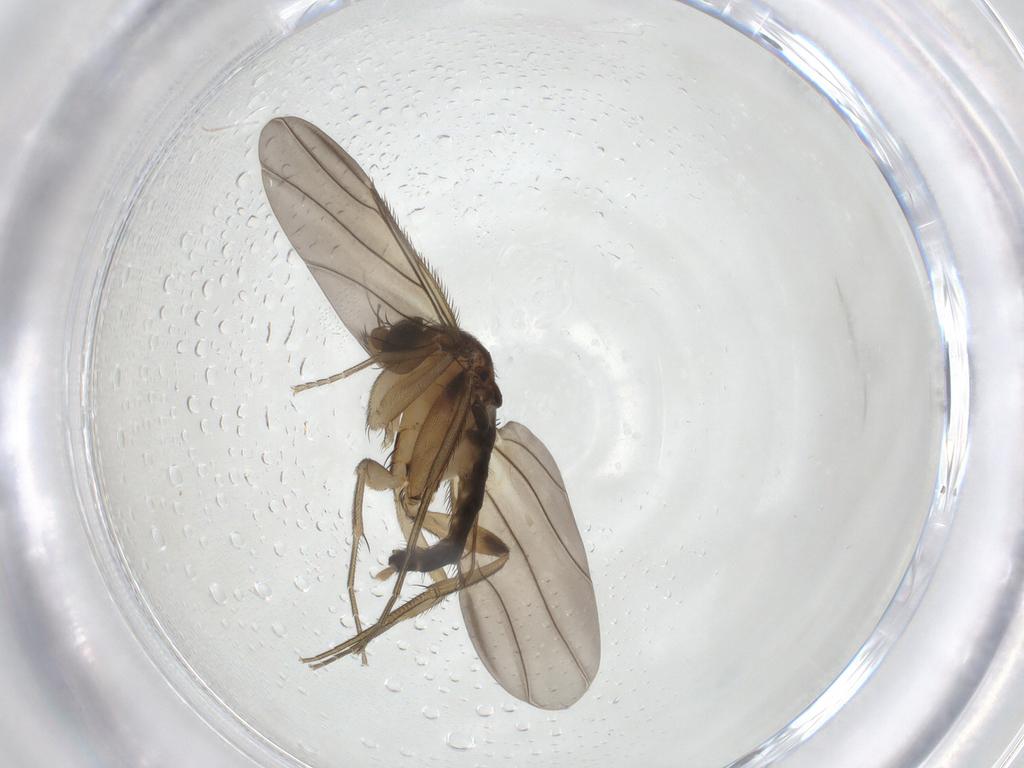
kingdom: Animalia
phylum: Arthropoda
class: Insecta
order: Diptera
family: Phoridae
